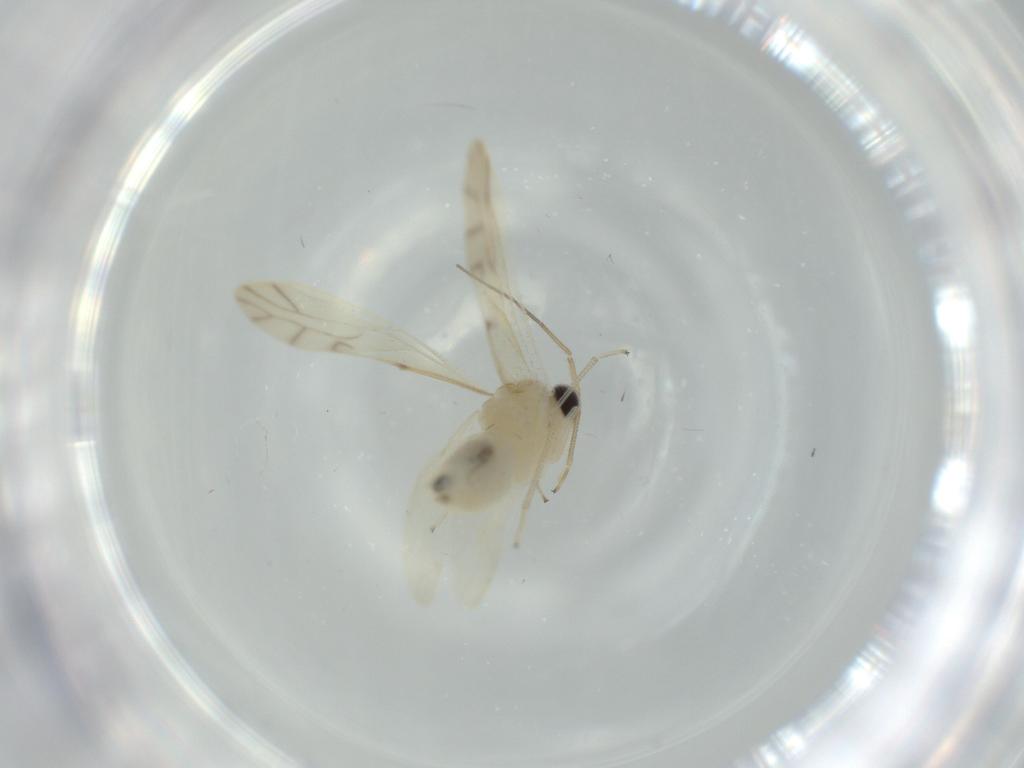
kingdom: Animalia
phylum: Arthropoda
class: Insecta
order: Psocodea
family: Caeciliusidae
